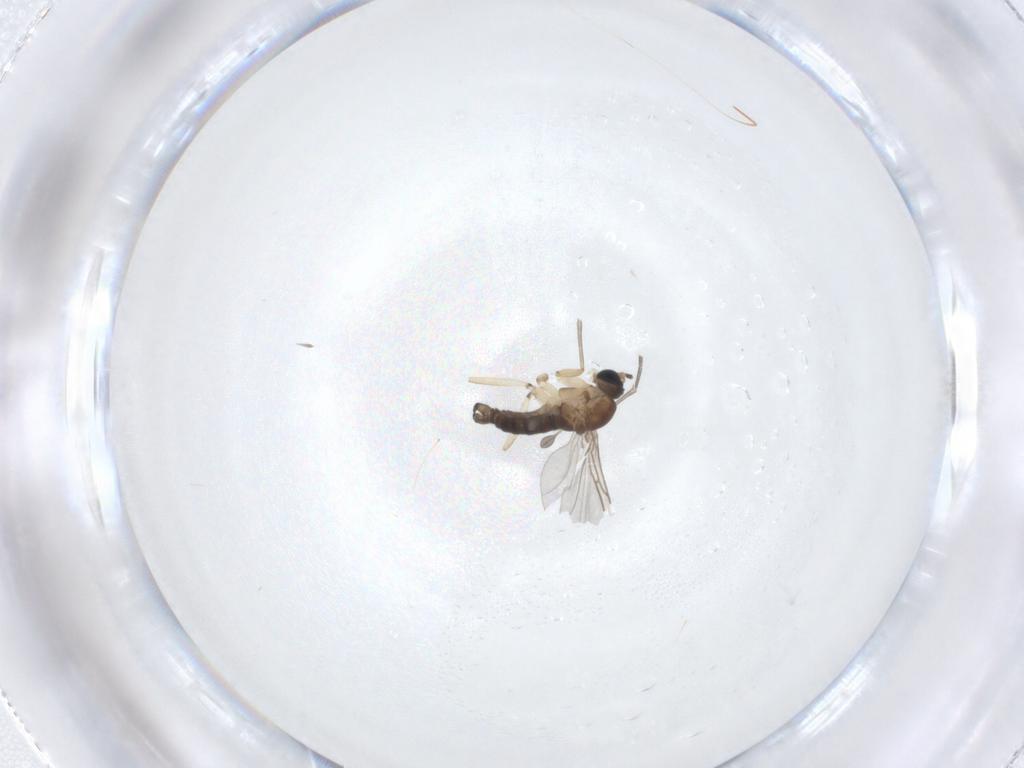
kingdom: Animalia
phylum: Arthropoda
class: Insecta
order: Diptera
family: Sciaridae
